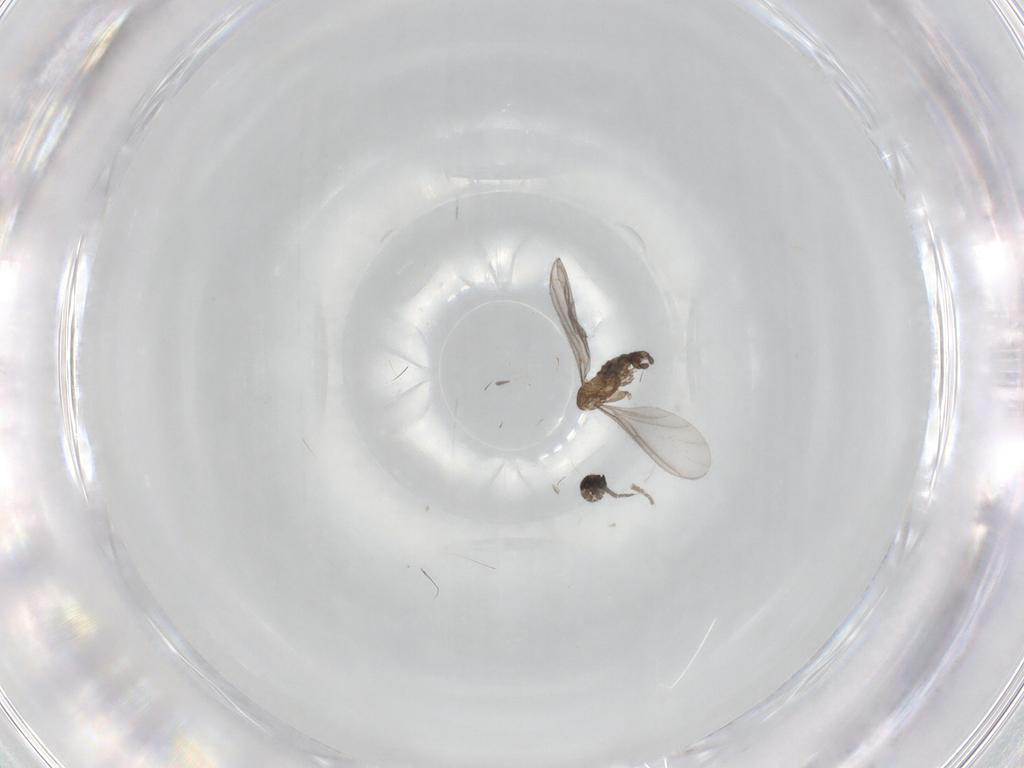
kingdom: Animalia
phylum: Arthropoda
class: Insecta
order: Diptera
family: Sciaridae
